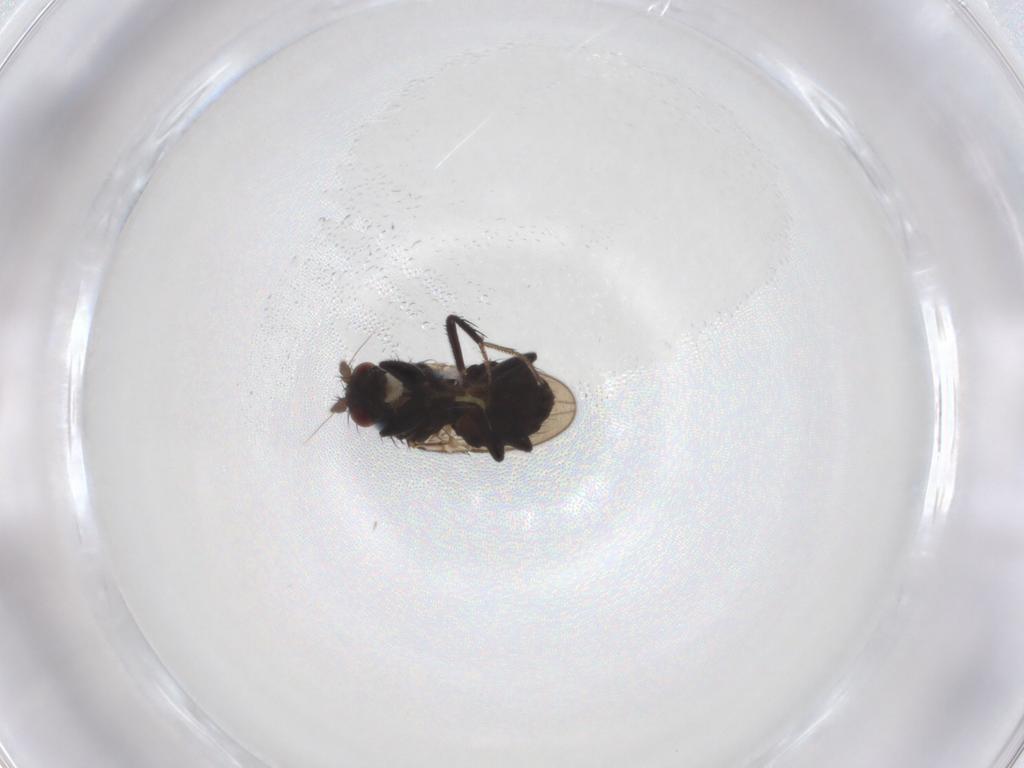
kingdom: Animalia
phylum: Arthropoda
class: Insecta
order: Diptera
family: Sphaeroceridae
